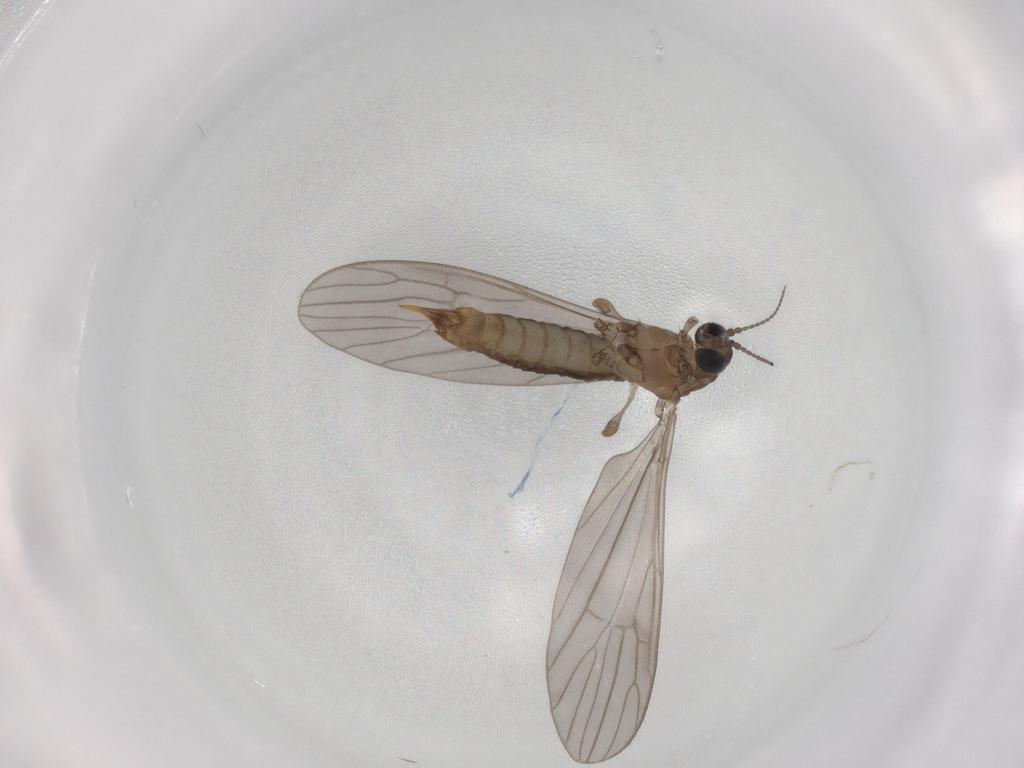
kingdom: Animalia
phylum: Arthropoda
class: Insecta
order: Diptera
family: Limoniidae
